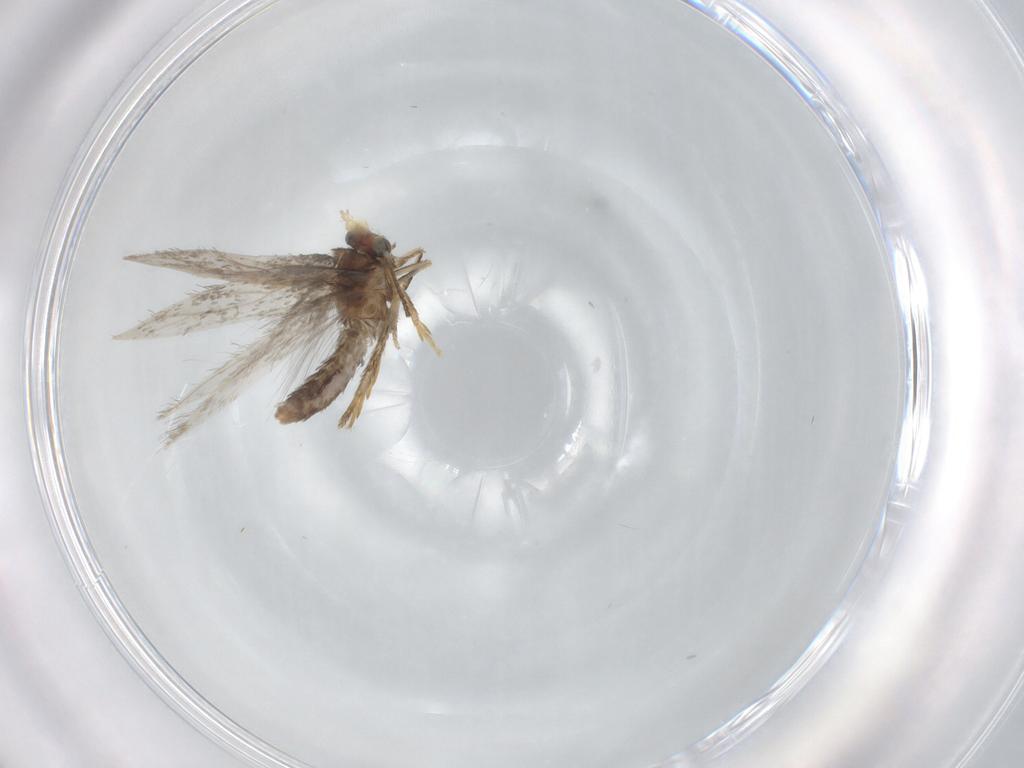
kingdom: Animalia
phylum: Arthropoda
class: Insecta
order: Lepidoptera
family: Nepticulidae
